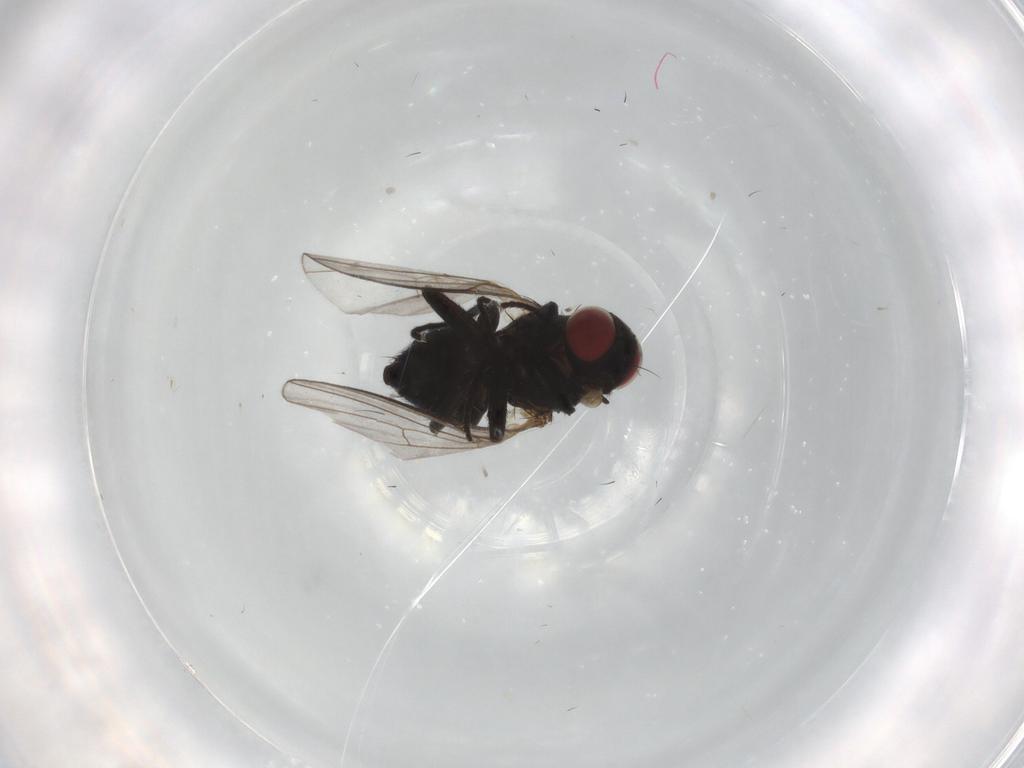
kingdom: Animalia
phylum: Arthropoda
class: Insecta
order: Diptera
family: Agromyzidae
